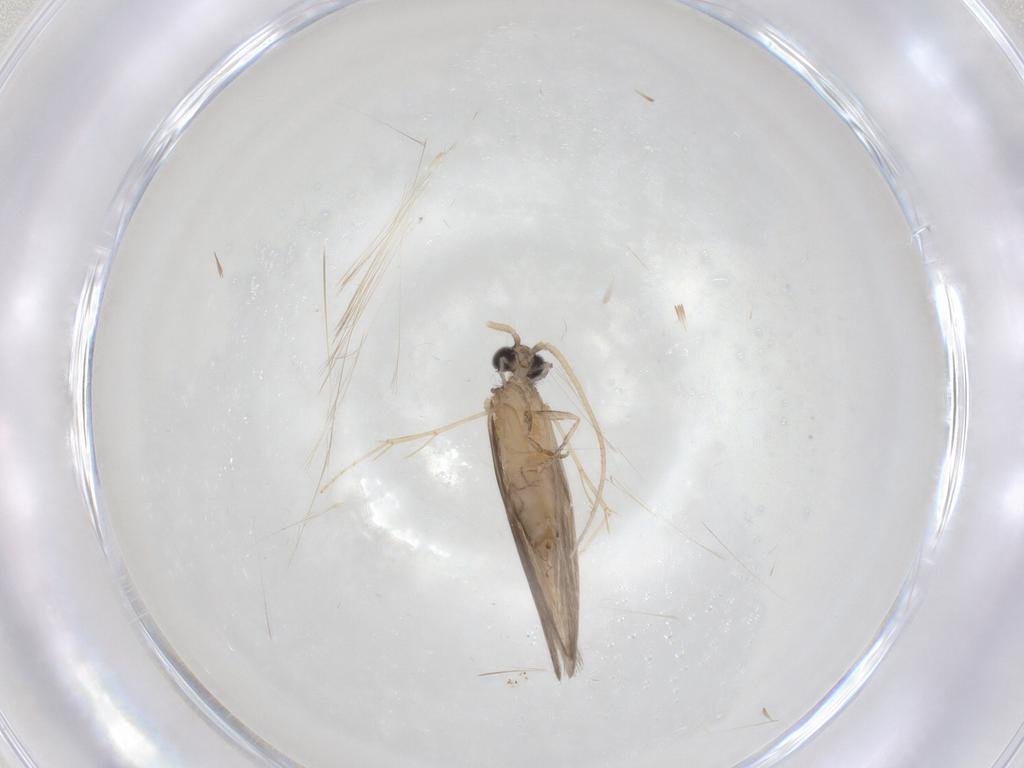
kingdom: Animalia
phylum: Arthropoda
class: Insecta
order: Trichoptera
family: Hydroptilidae
